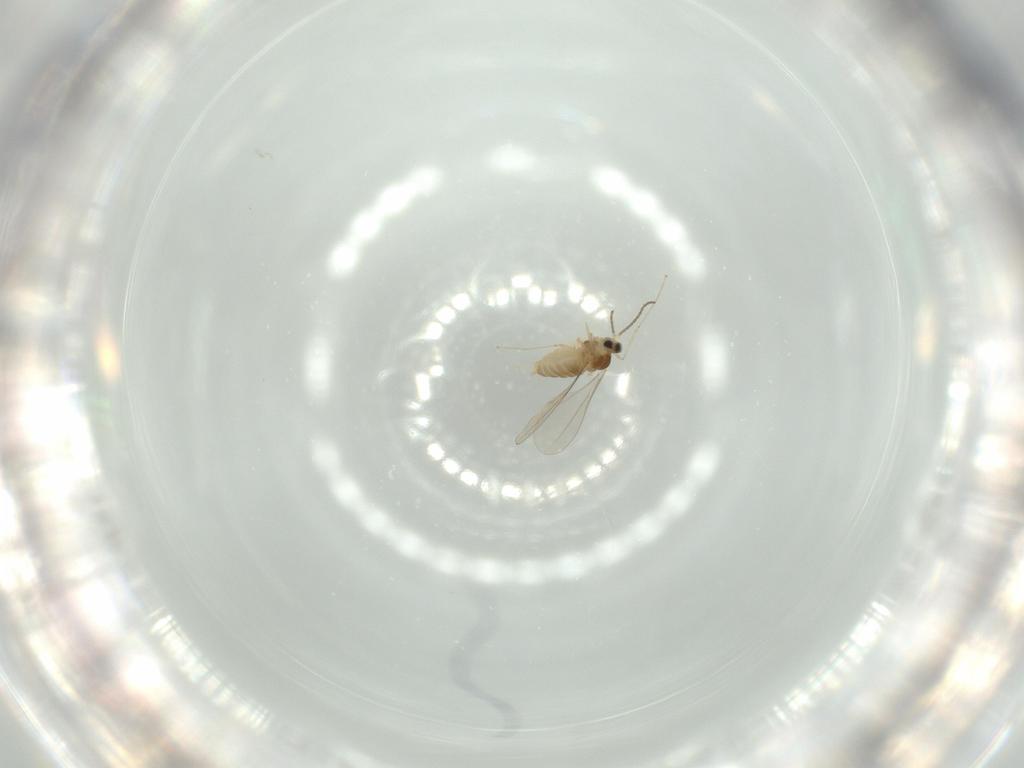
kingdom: Animalia
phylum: Arthropoda
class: Insecta
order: Diptera
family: Cecidomyiidae
